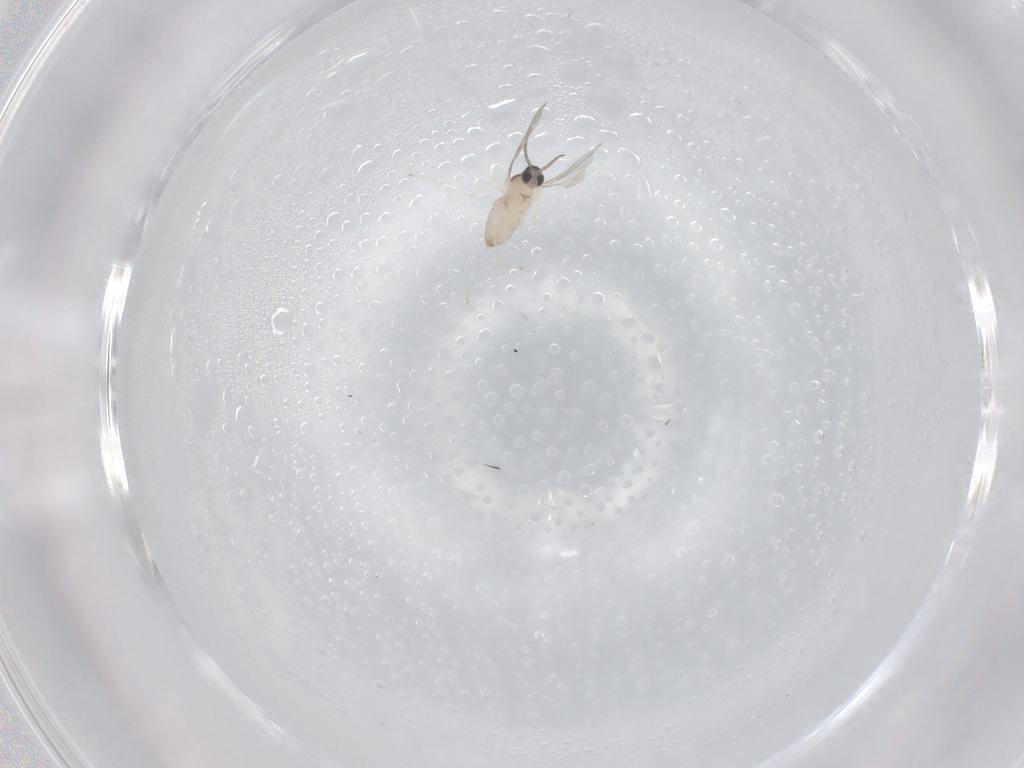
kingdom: Animalia
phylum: Arthropoda
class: Insecta
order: Diptera
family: Cecidomyiidae
